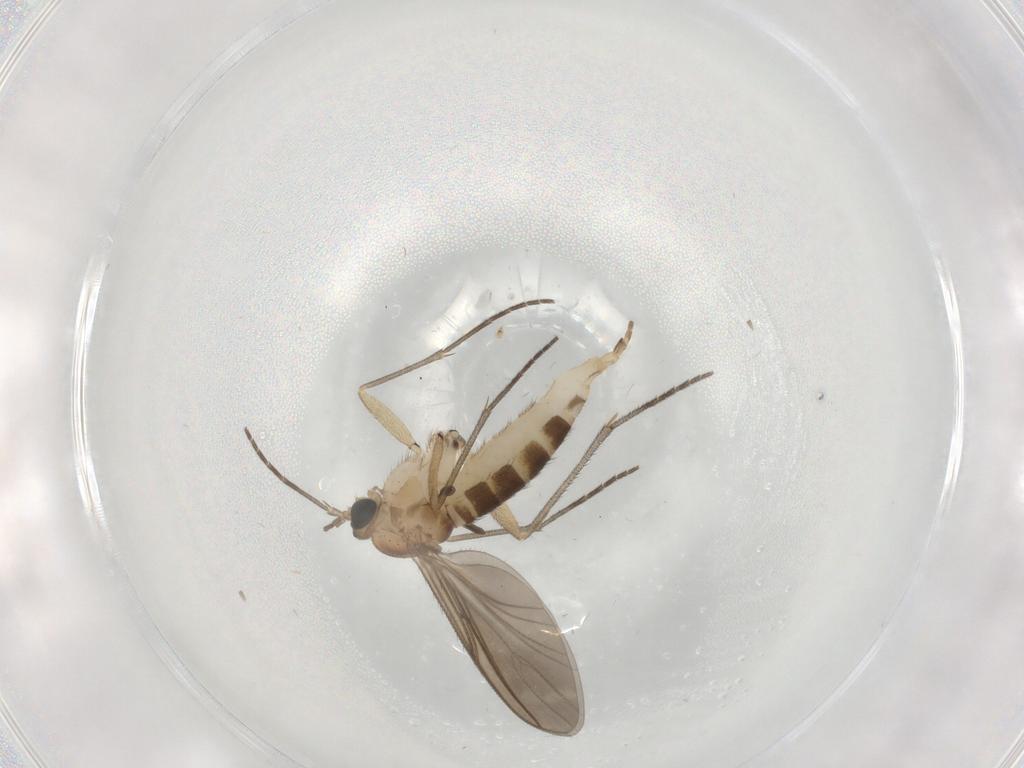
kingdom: Animalia
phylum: Arthropoda
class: Insecta
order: Diptera
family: Sciaridae
